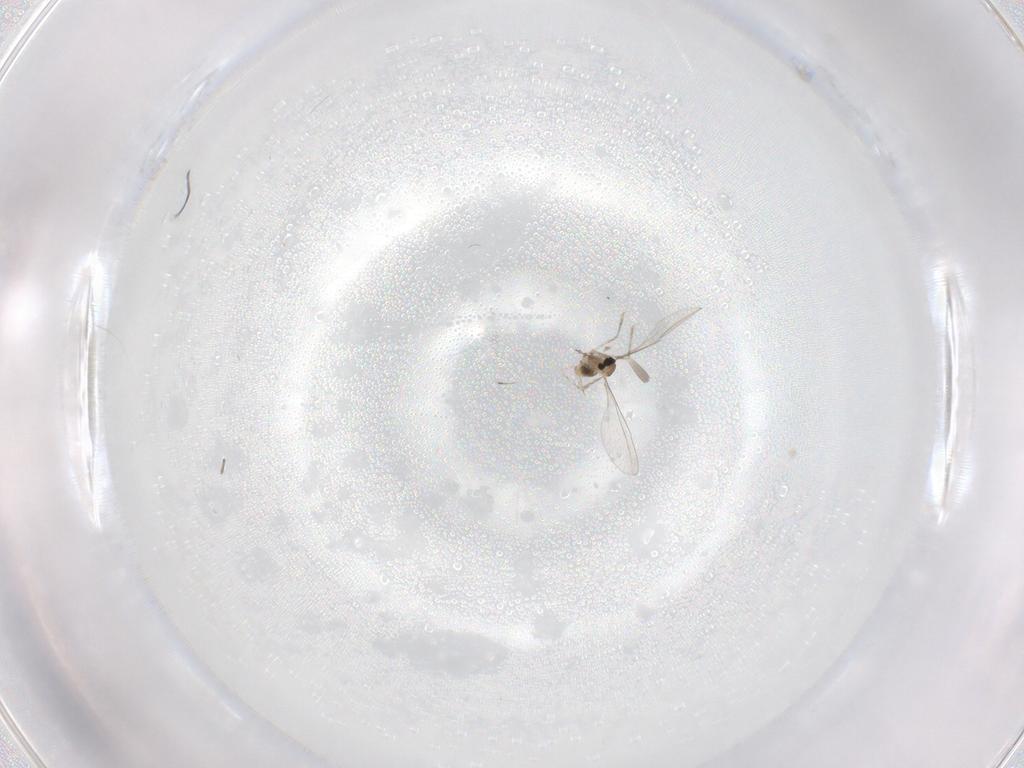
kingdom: Animalia
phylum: Arthropoda
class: Insecta
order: Diptera
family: Cecidomyiidae
